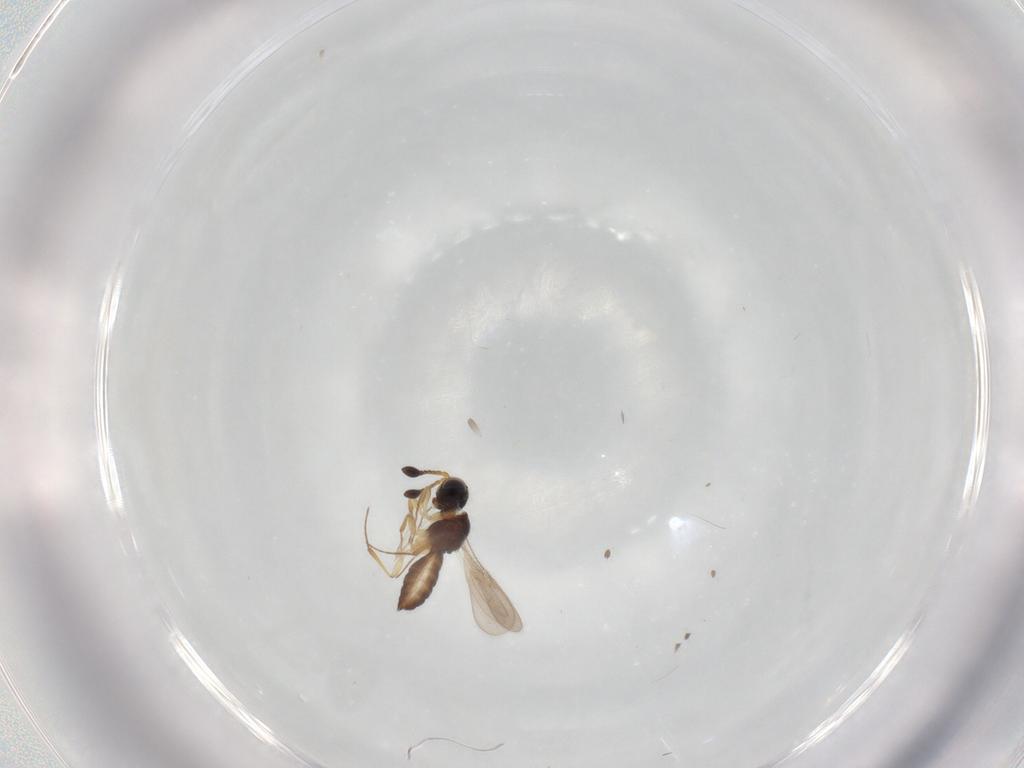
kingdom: Animalia
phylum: Arthropoda
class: Insecta
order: Hymenoptera
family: Scelionidae
